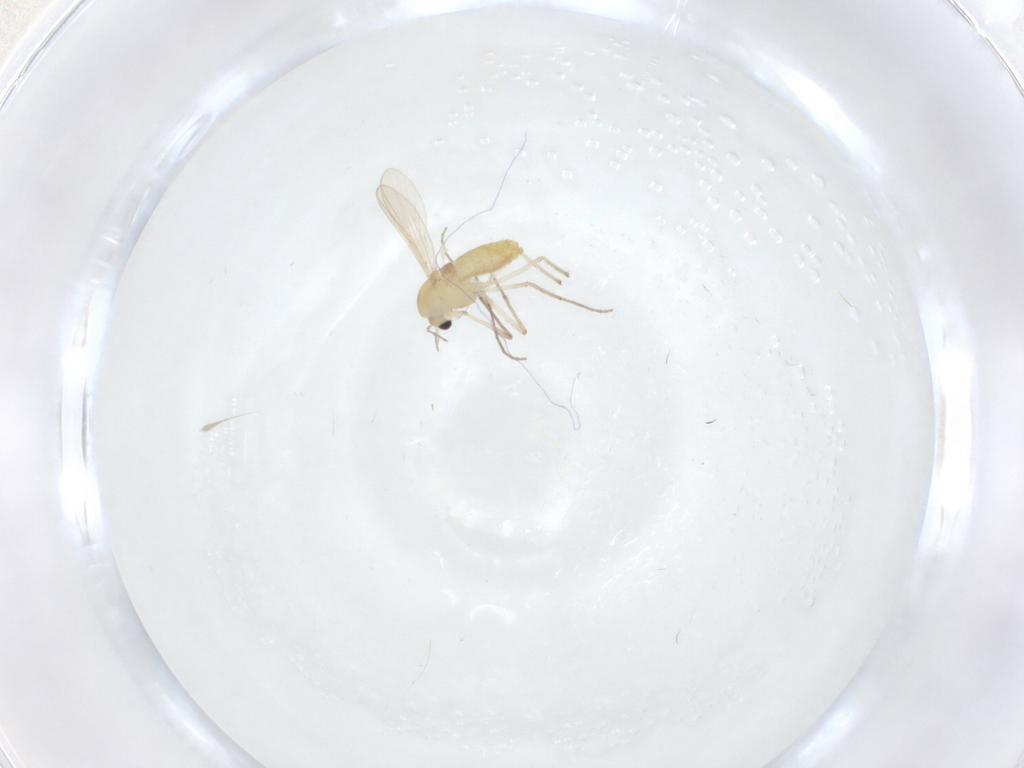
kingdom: Animalia
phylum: Arthropoda
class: Insecta
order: Diptera
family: Chironomidae
